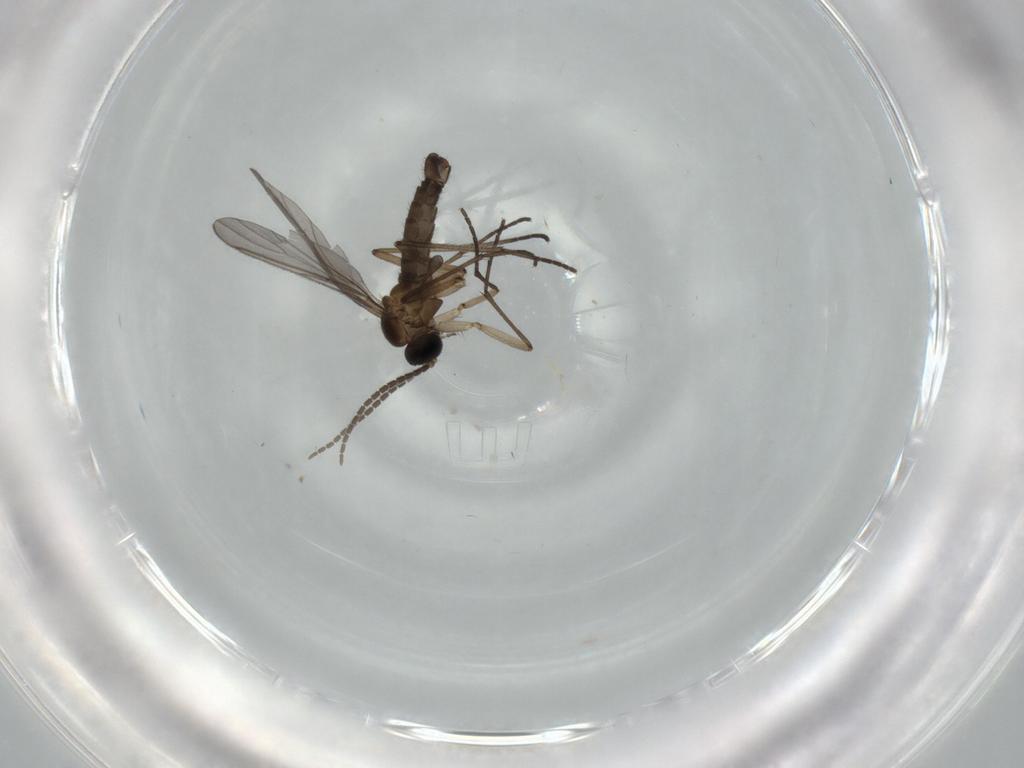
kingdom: Animalia
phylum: Arthropoda
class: Insecta
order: Diptera
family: Sciaridae
